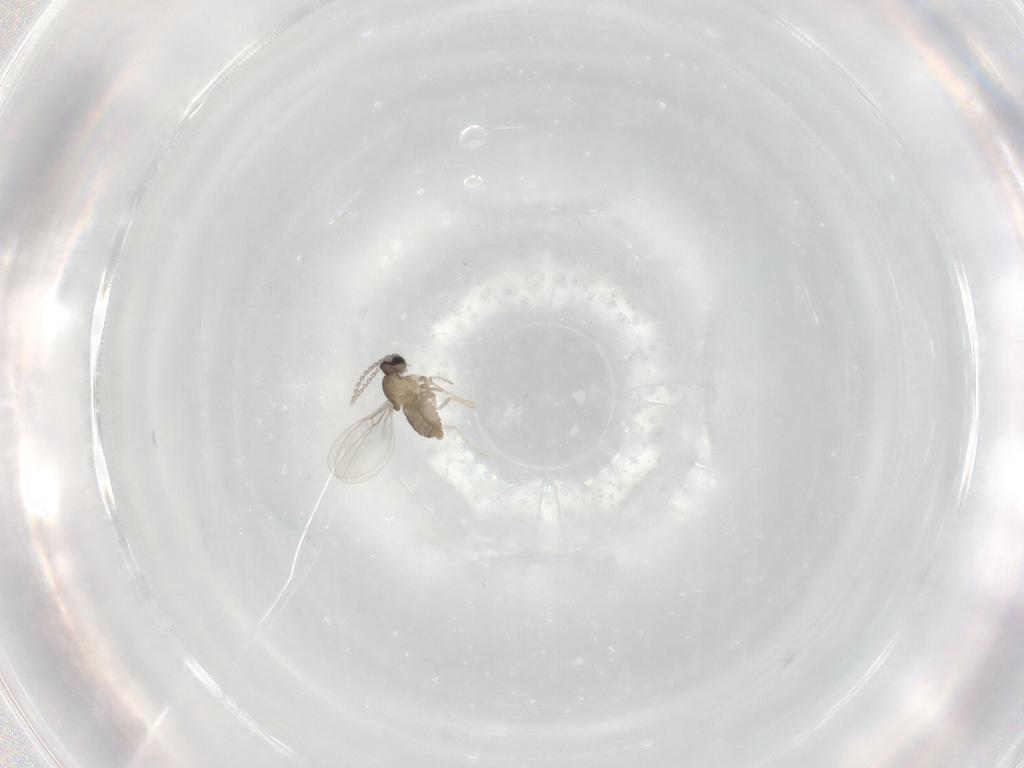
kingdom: Animalia
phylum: Arthropoda
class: Insecta
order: Diptera
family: Cecidomyiidae
